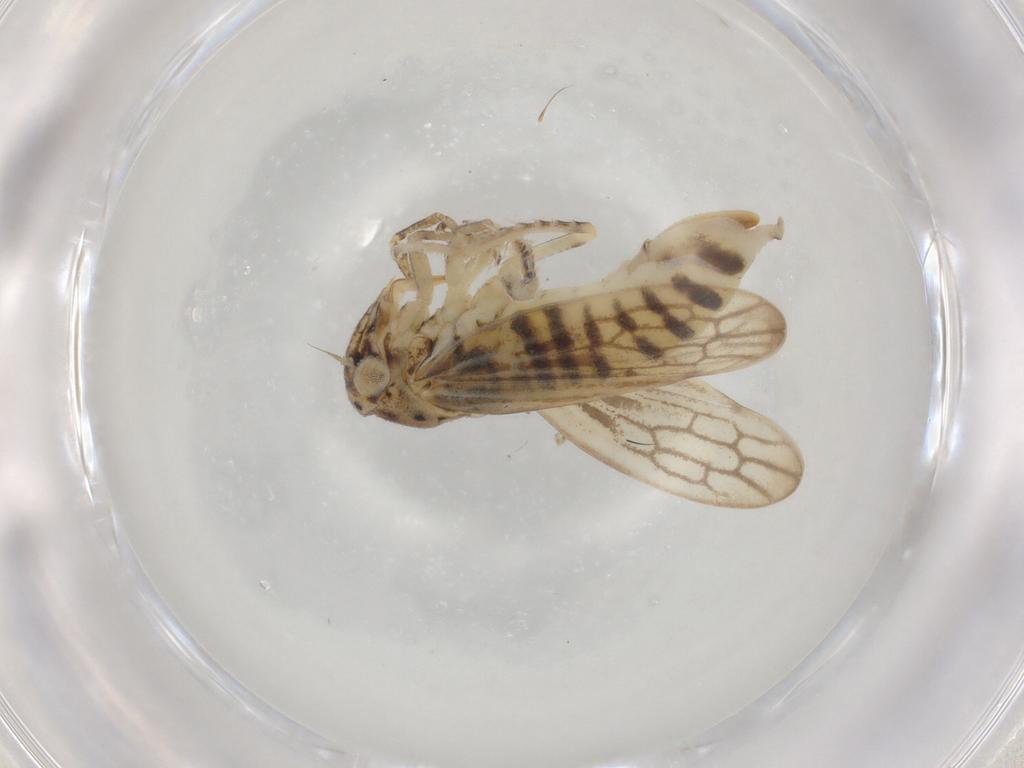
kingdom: Animalia
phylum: Arthropoda
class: Insecta
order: Hemiptera
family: Cicadellidae
